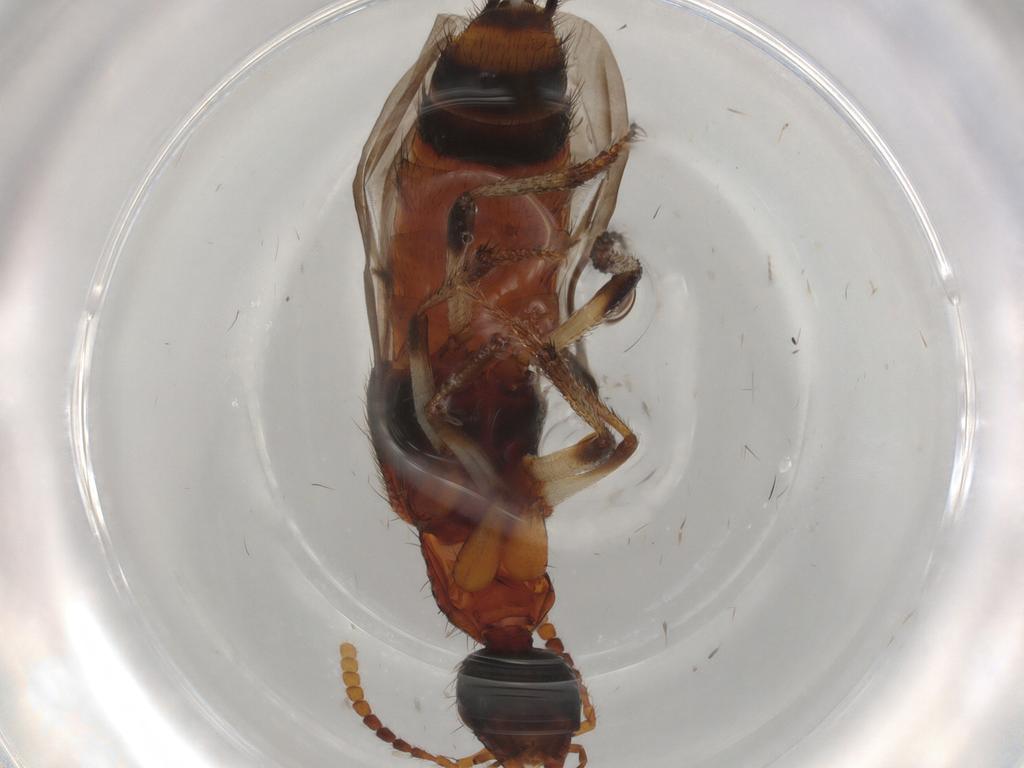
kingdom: Animalia
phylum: Arthropoda
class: Insecta
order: Coleoptera
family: Staphylinidae
